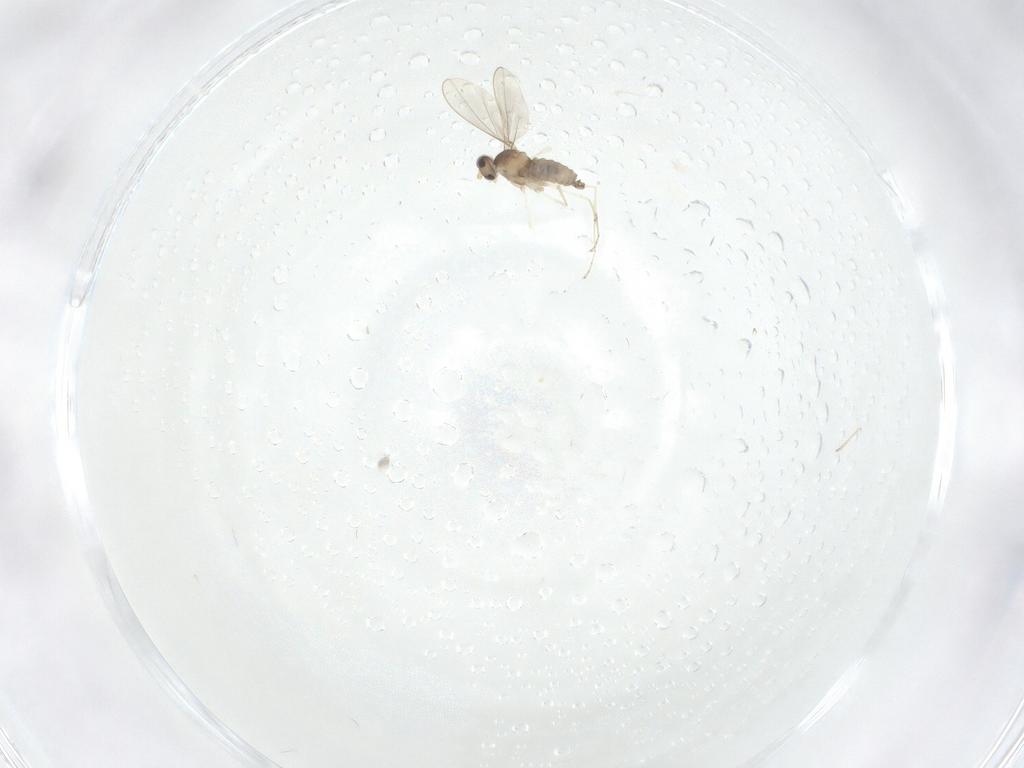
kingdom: Animalia
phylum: Arthropoda
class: Insecta
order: Diptera
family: Cecidomyiidae
